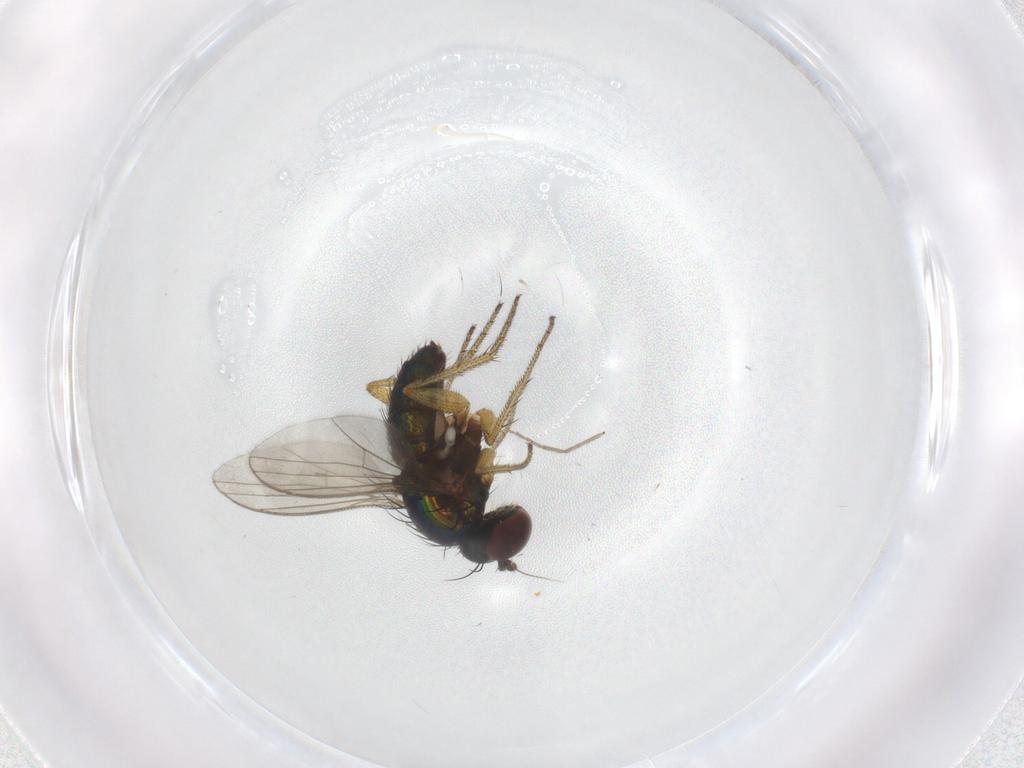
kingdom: Animalia
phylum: Arthropoda
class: Insecta
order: Diptera
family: Dolichopodidae
